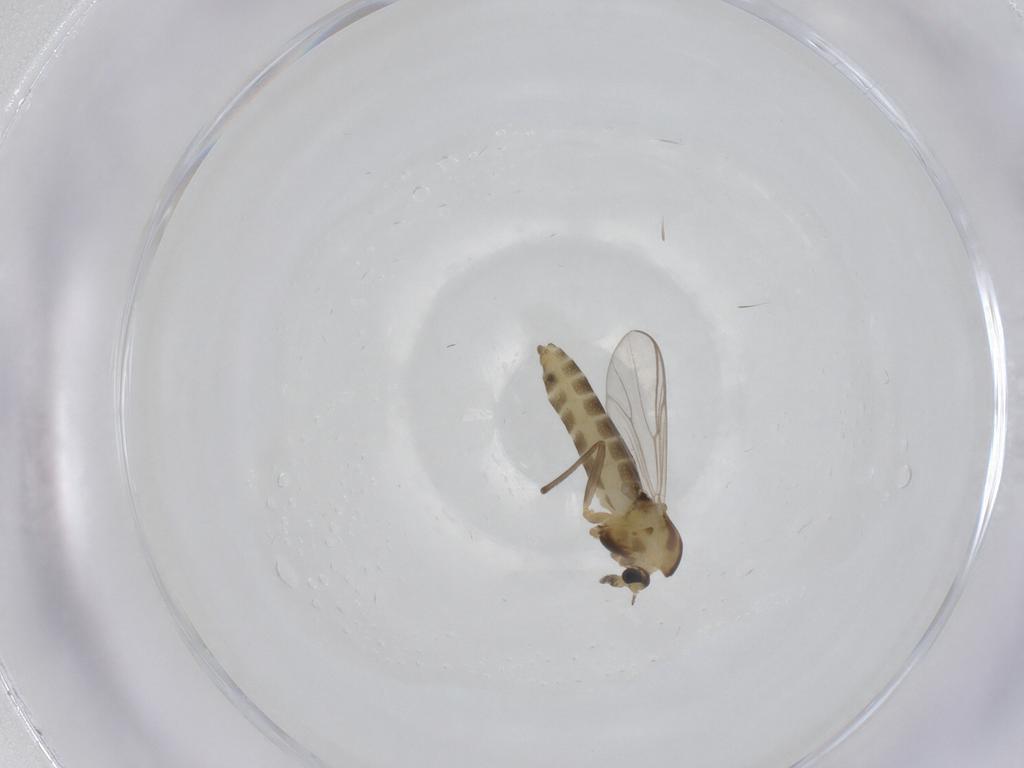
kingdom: Animalia
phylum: Arthropoda
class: Insecta
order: Diptera
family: Chironomidae
